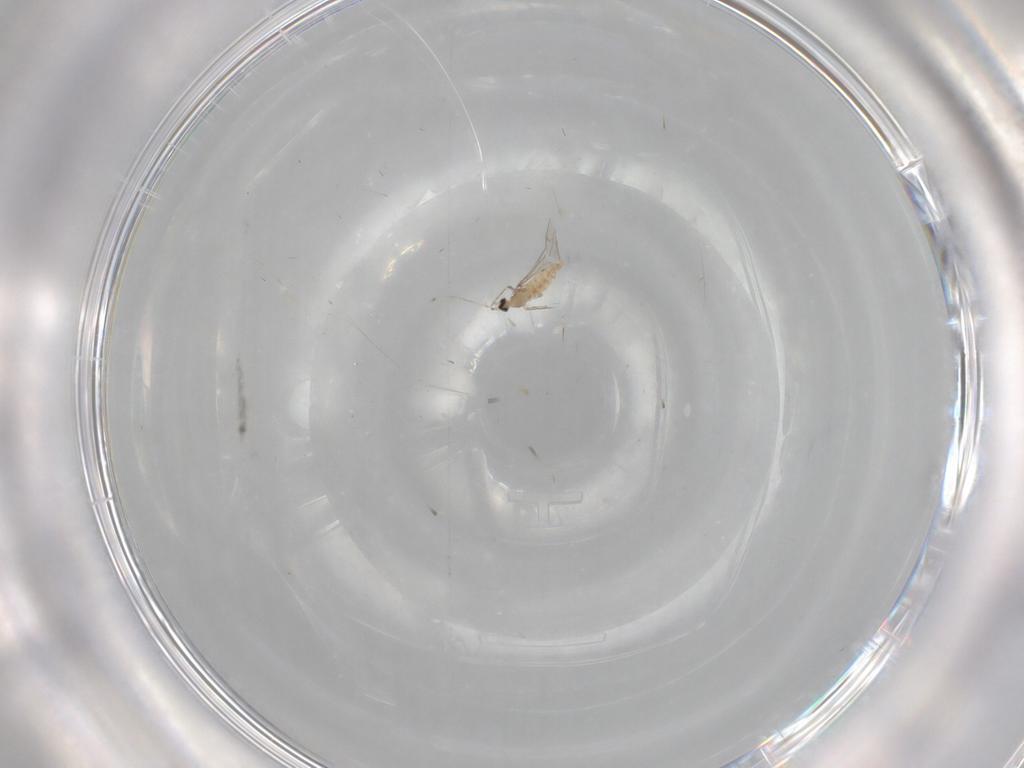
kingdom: Animalia
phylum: Arthropoda
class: Insecta
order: Diptera
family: Cecidomyiidae
